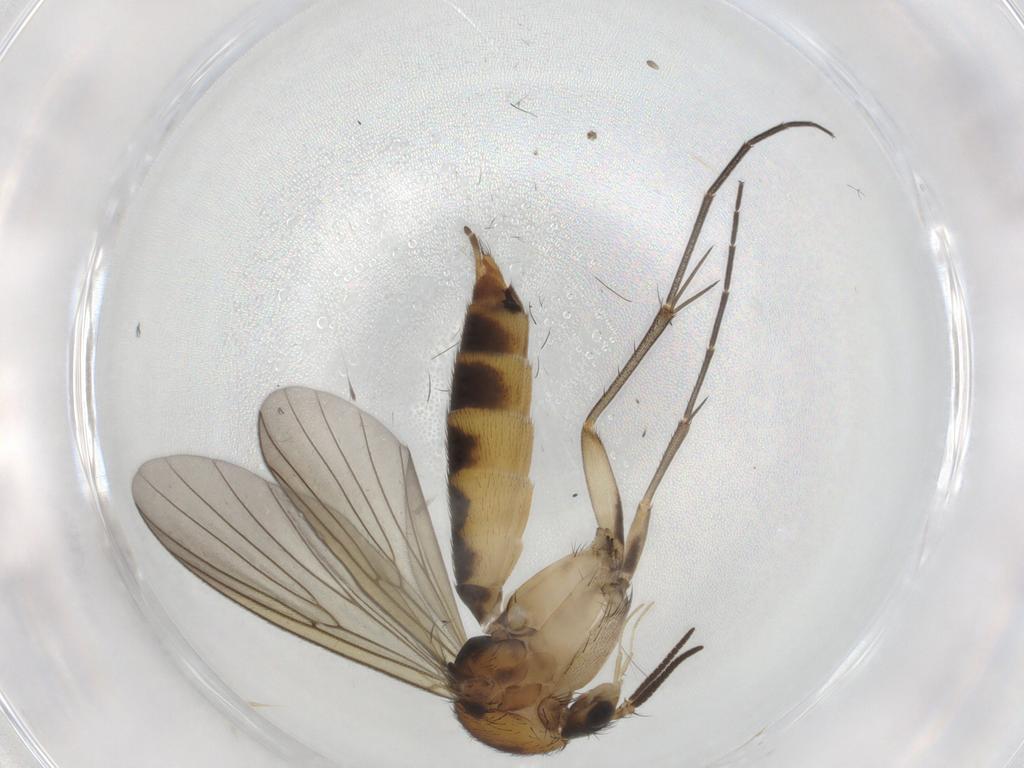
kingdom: Animalia
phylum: Arthropoda
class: Insecta
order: Diptera
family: Mycetophilidae
